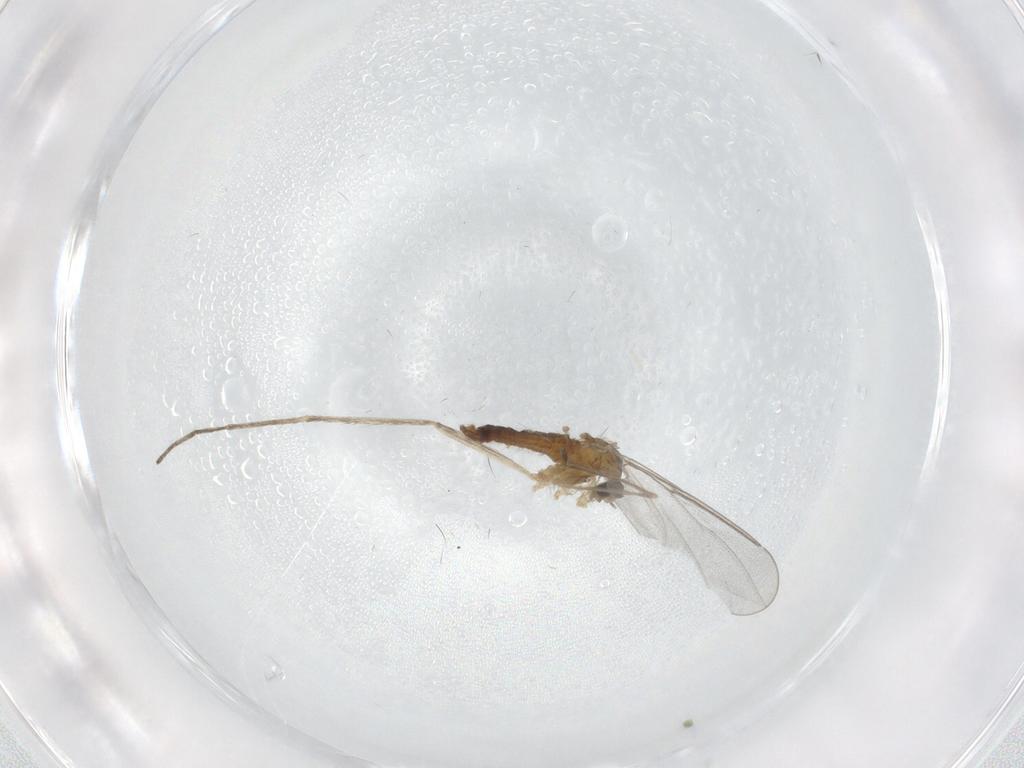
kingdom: Animalia
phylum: Arthropoda
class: Insecta
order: Diptera
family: Cecidomyiidae
